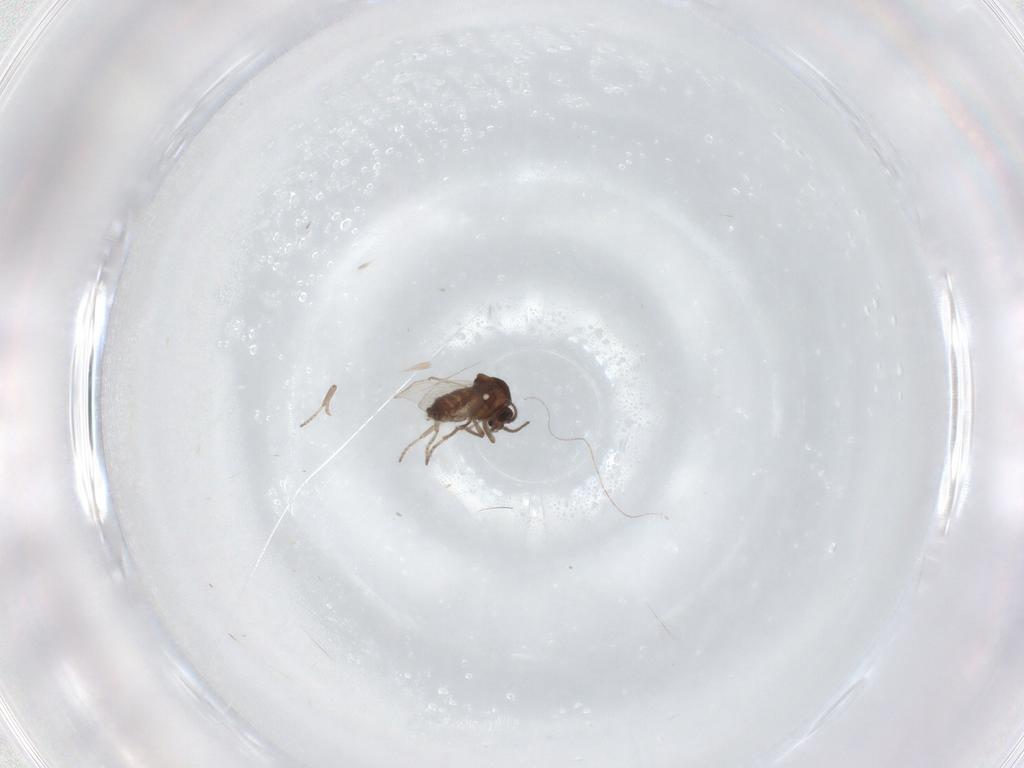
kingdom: Animalia
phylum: Arthropoda
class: Insecta
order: Diptera
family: Ceratopogonidae
